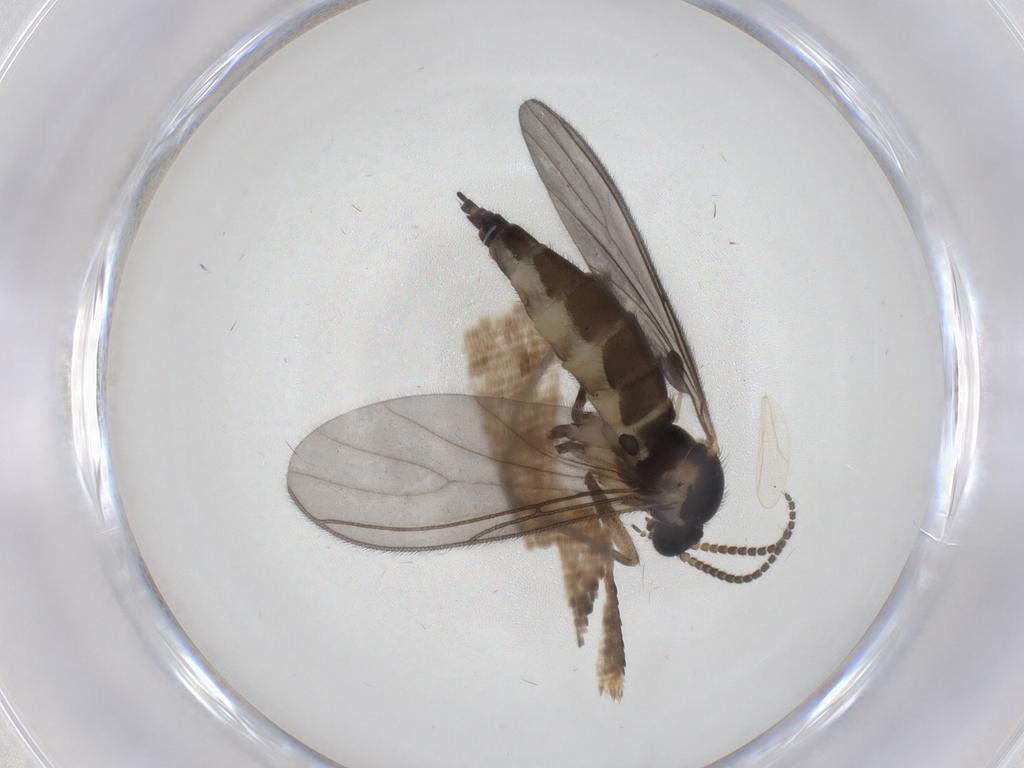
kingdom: Animalia
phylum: Arthropoda
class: Insecta
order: Diptera
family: Sciaridae
